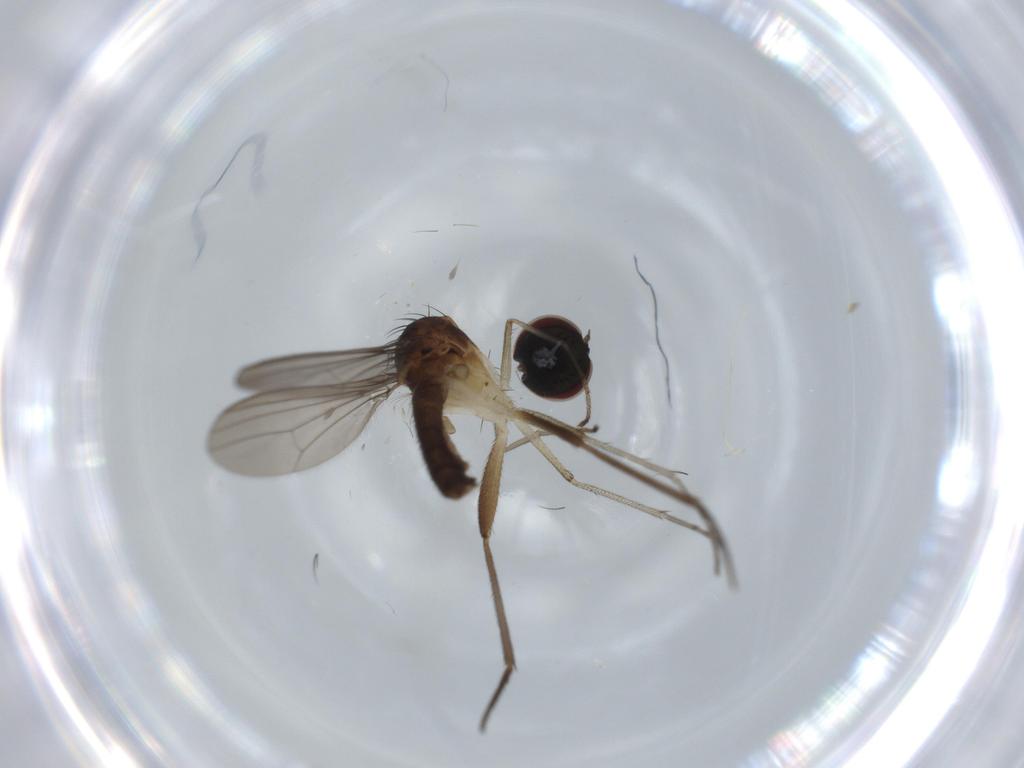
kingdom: Animalia
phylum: Arthropoda
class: Insecta
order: Diptera
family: Dolichopodidae
